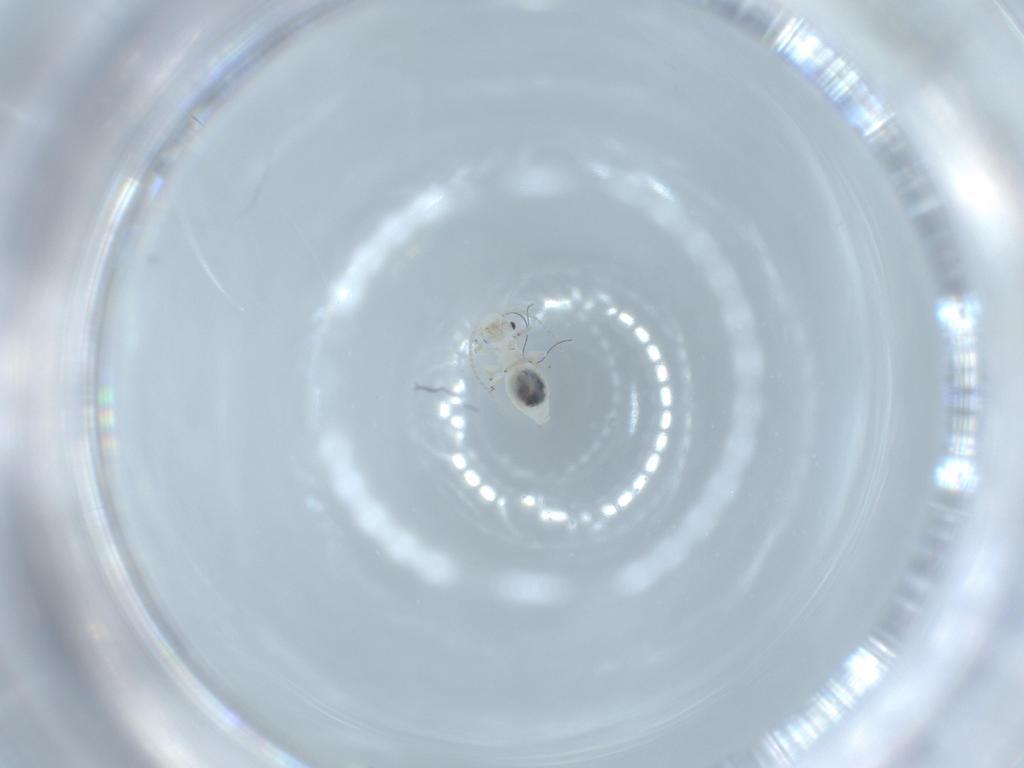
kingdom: Animalia
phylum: Arthropoda
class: Insecta
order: Psocodea
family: Caeciliusidae
